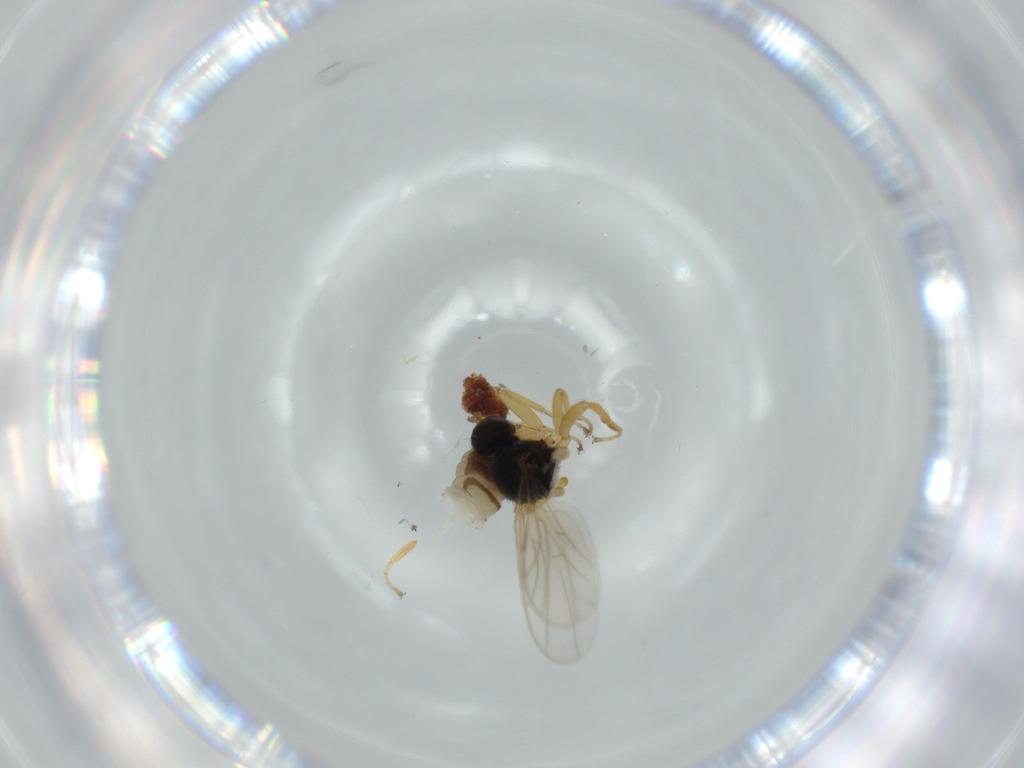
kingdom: Animalia
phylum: Arthropoda
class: Insecta
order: Diptera
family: Hybotidae
